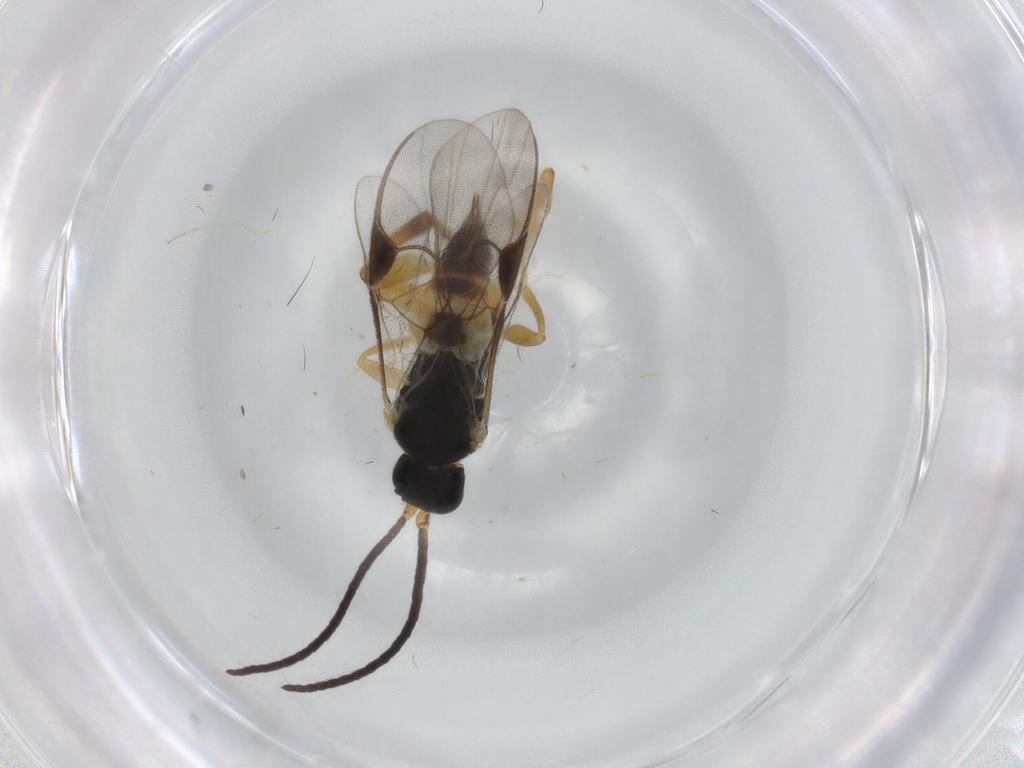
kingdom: Animalia
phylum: Arthropoda
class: Insecta
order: Hymenoptera
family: Braconidae
